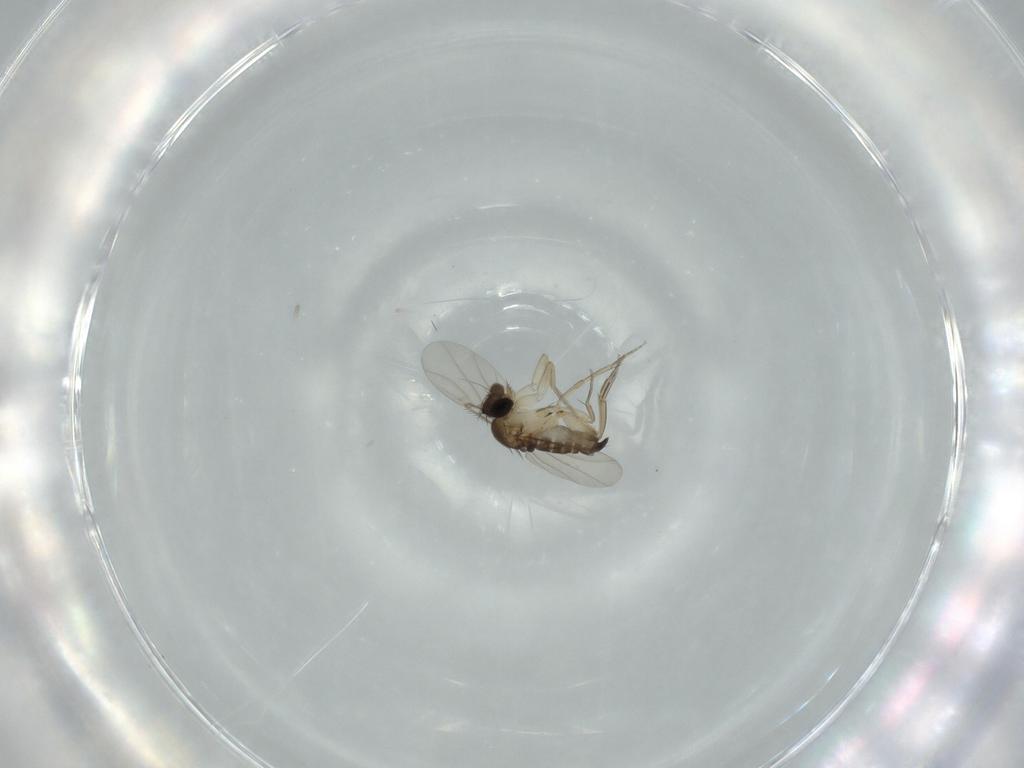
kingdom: Animalia
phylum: Arthropoda
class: Insecta
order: Diptera
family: Phoridae
